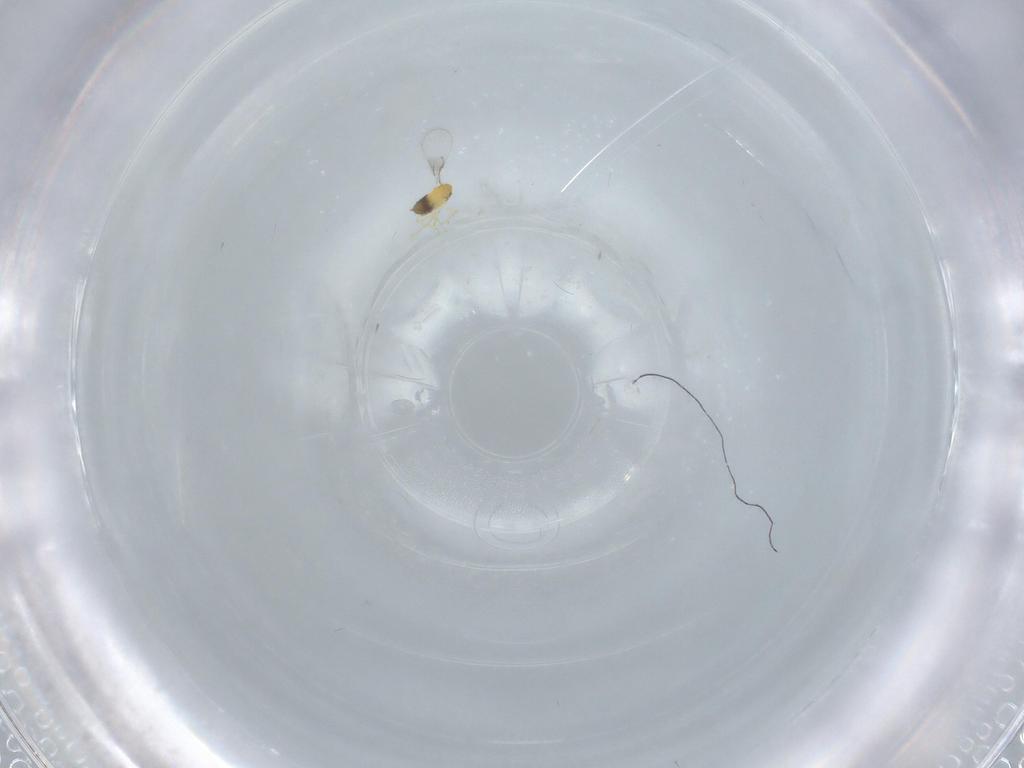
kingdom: Animalia
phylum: Arthropoda
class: Insecta
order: Hymenoptera
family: Trichogrammatidae
